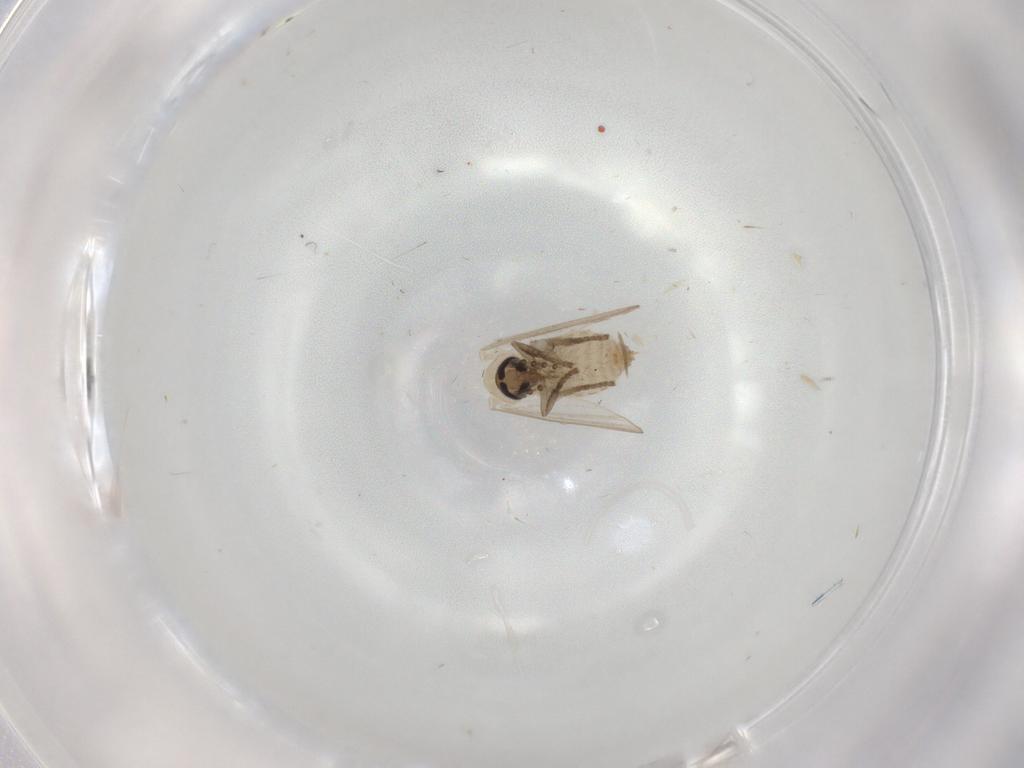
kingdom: Animalia
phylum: Arthropoda
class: Insecta
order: Diptera
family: Psychodidae
